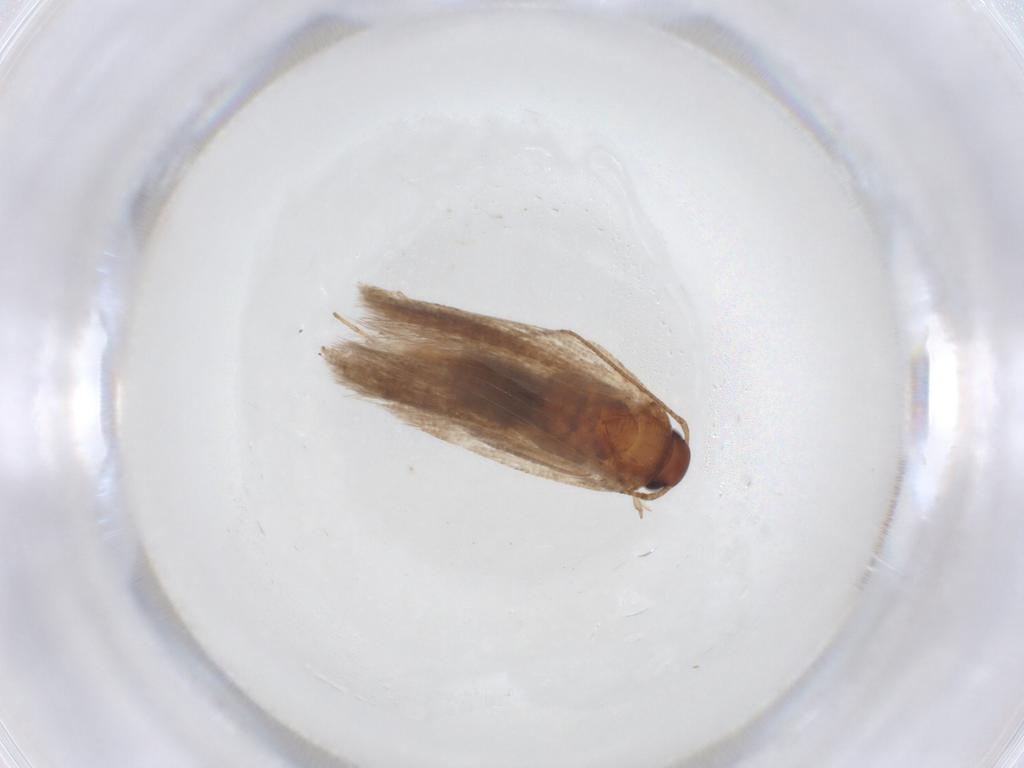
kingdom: Animalia
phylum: Arthropoda
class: Insecta
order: Lepidoptera
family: Gelechiidae
